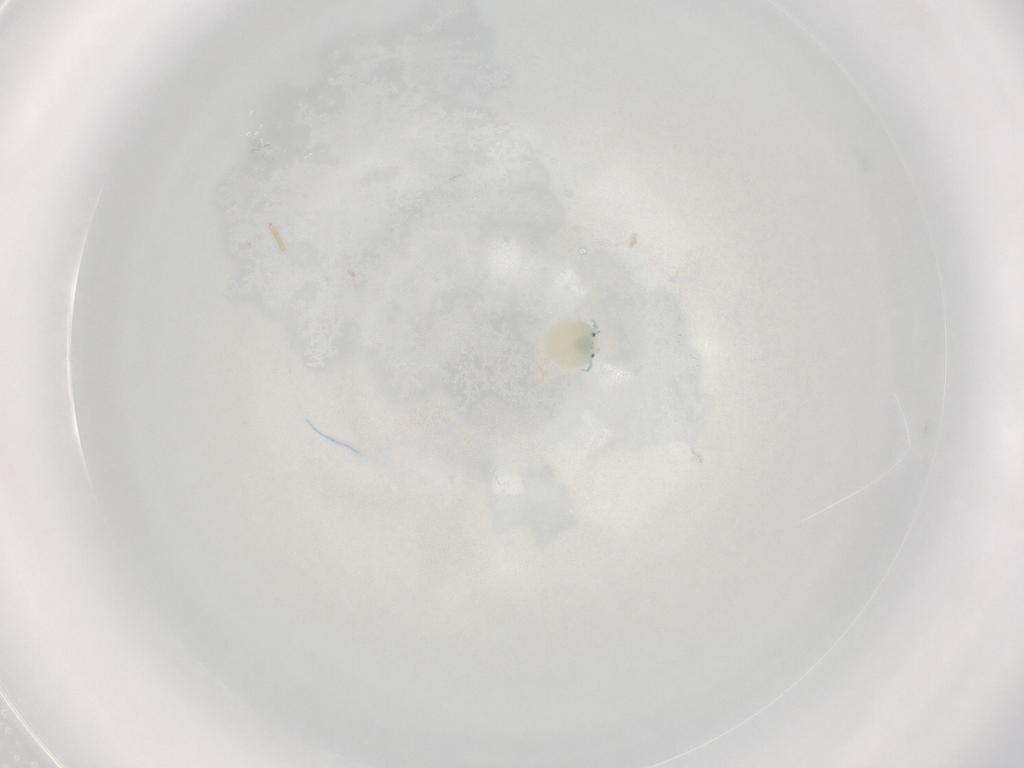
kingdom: Animalia
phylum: Arthropoda
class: Arachnida
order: Trombidiformes
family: Arrenuridae
